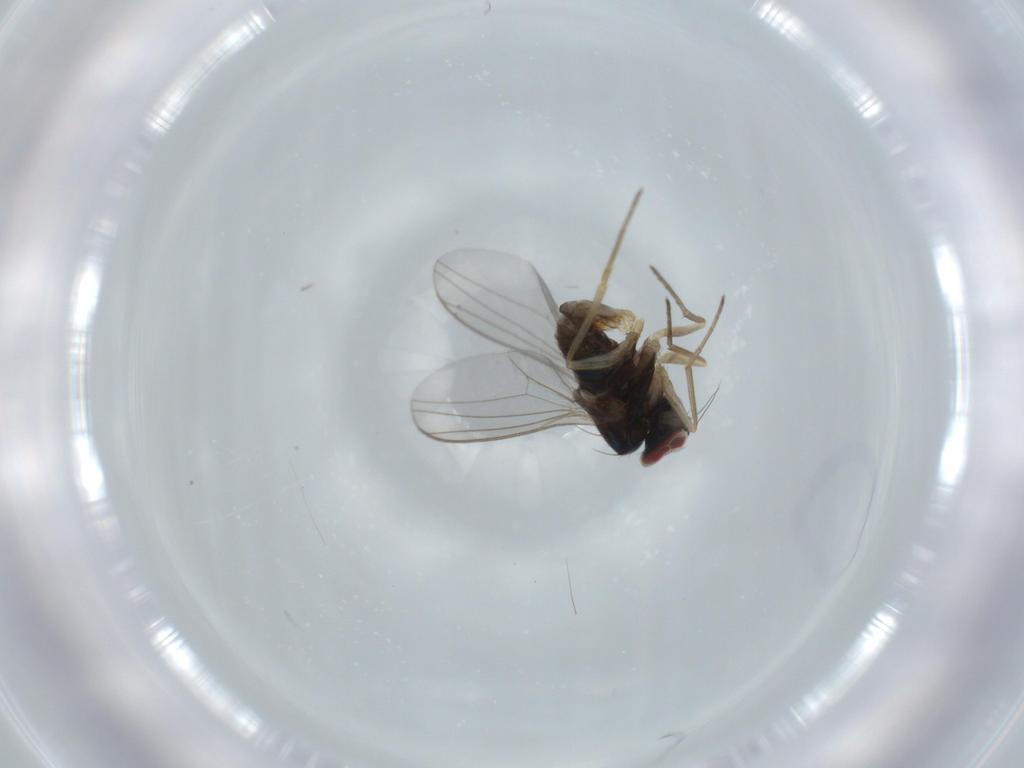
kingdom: Animalia
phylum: Arthropoda
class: Insecta
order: Diptera
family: Dolichopodidae
